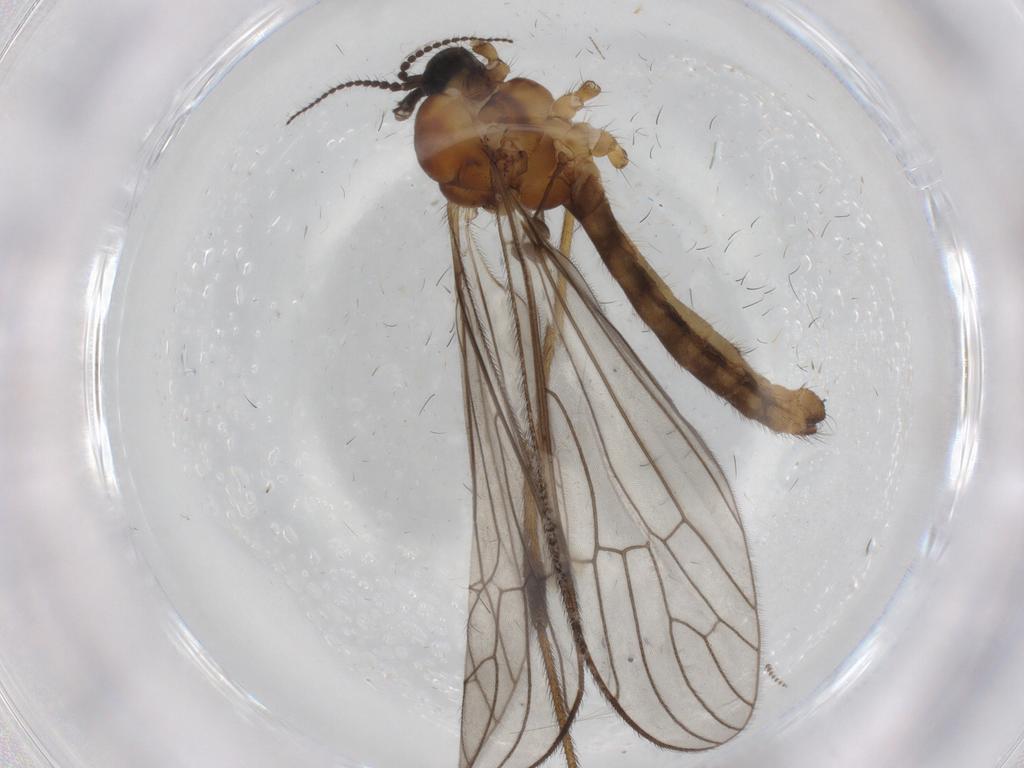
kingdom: Animalia
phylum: Arthropoda
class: Insecta
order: Diptera
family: Limoniidae
